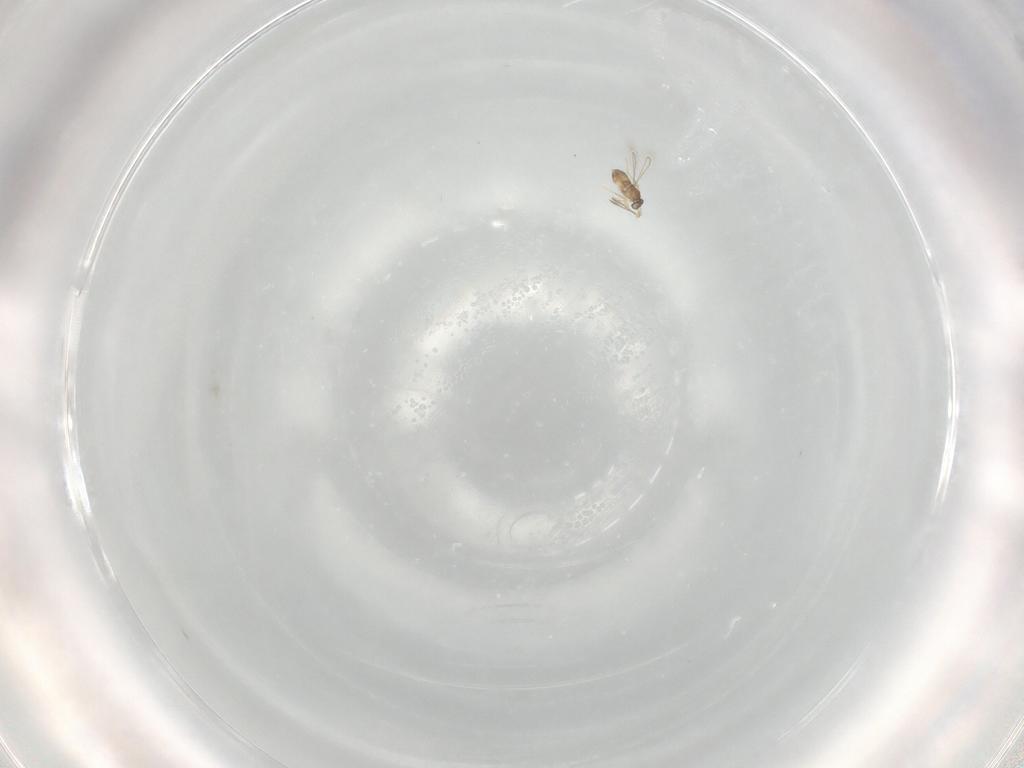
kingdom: Animalia
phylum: Arthropoda
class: Insecta
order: Hymenoptera
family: Mymaridae
